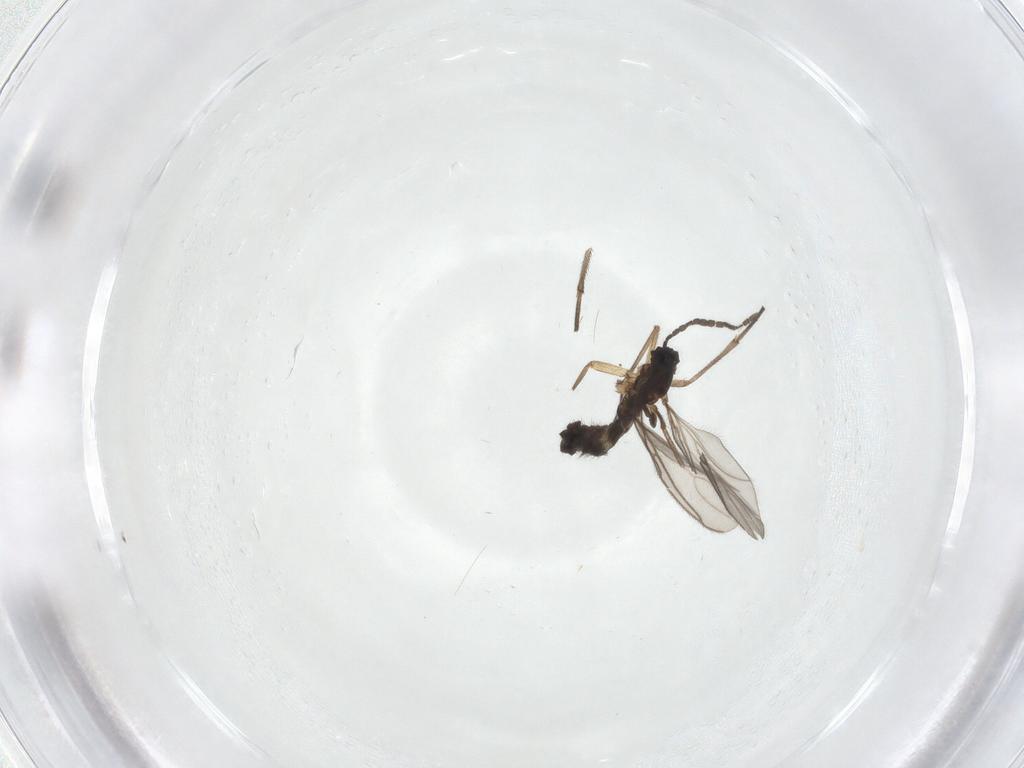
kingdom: Animalia
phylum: Arthropoda
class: Insecta
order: Diptera
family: Sciaridae
